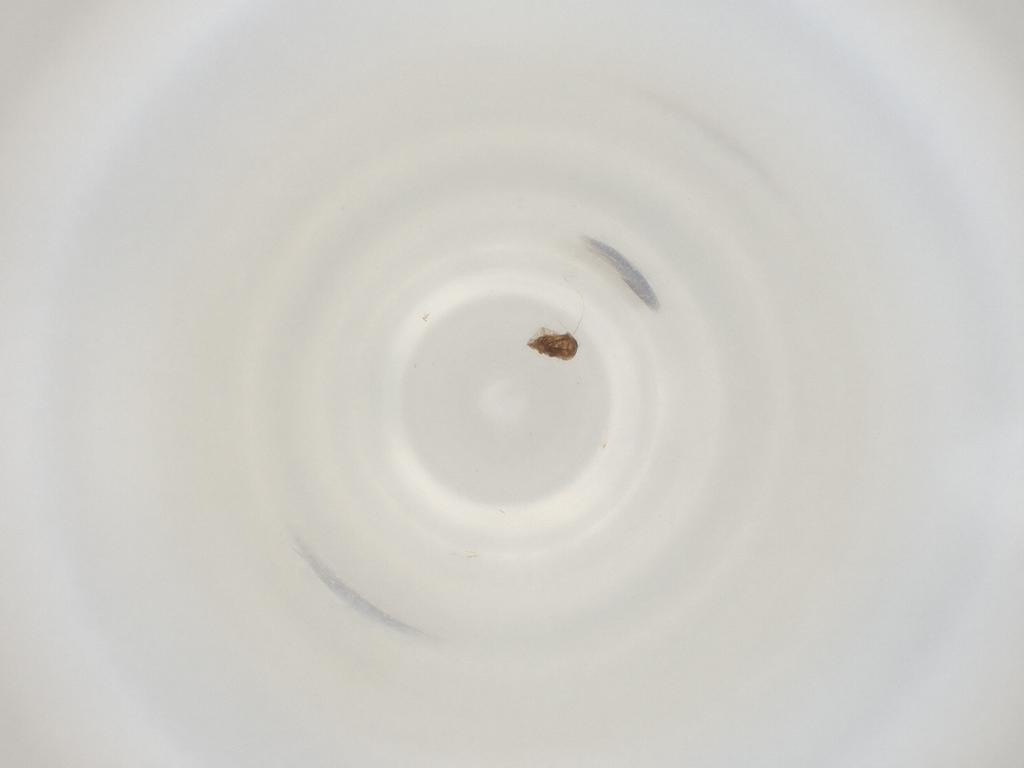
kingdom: Animalia
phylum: Arthropoda
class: Insecta
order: Diptera
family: Cecidomyiidae
